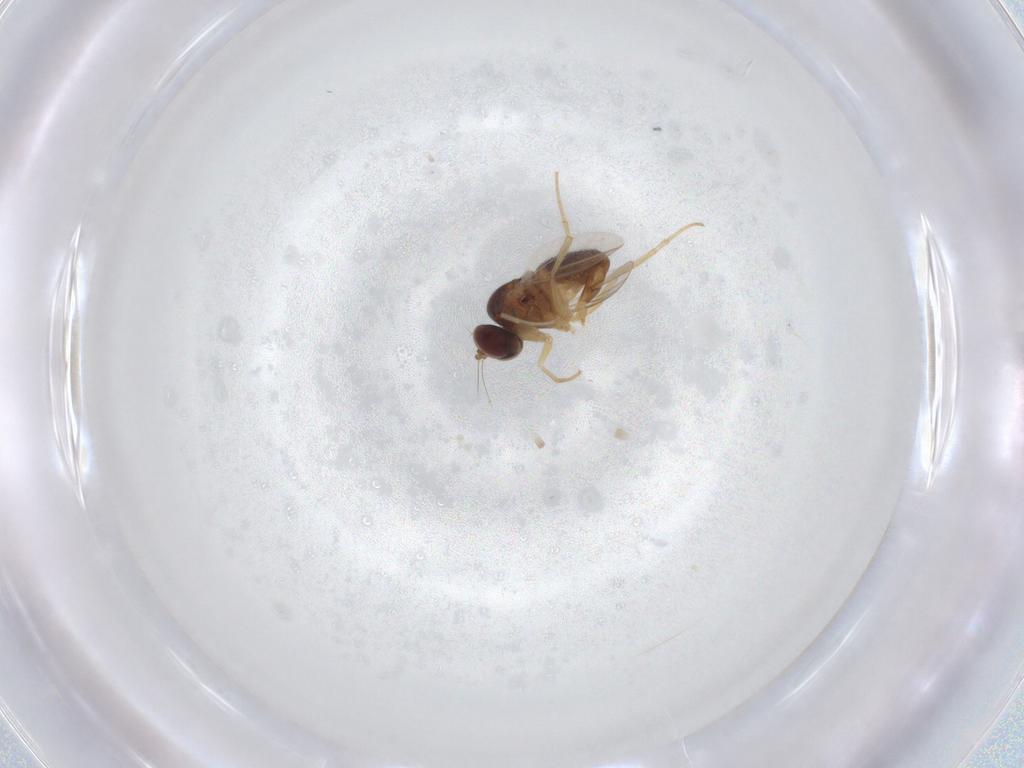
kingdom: Animalia
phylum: Arthropoda
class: Insecta
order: Diptera
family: Dolichopodidae
